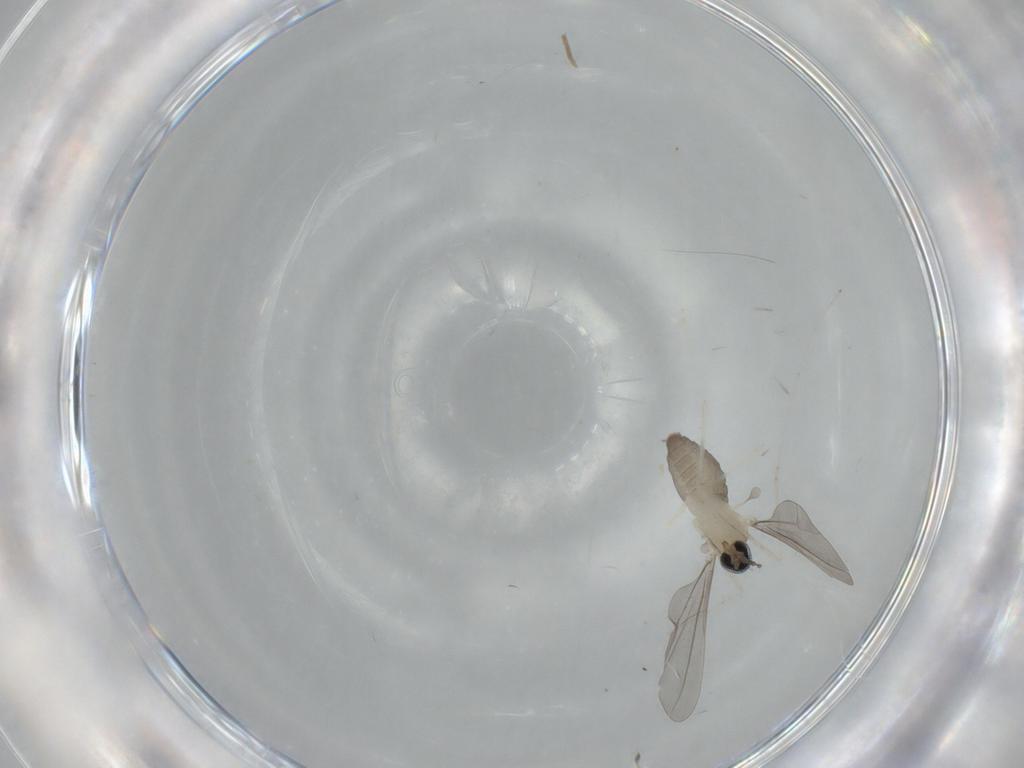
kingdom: Animalia
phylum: Arthropoda
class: Insecta
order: Diptera
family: Cecidomyiidae
